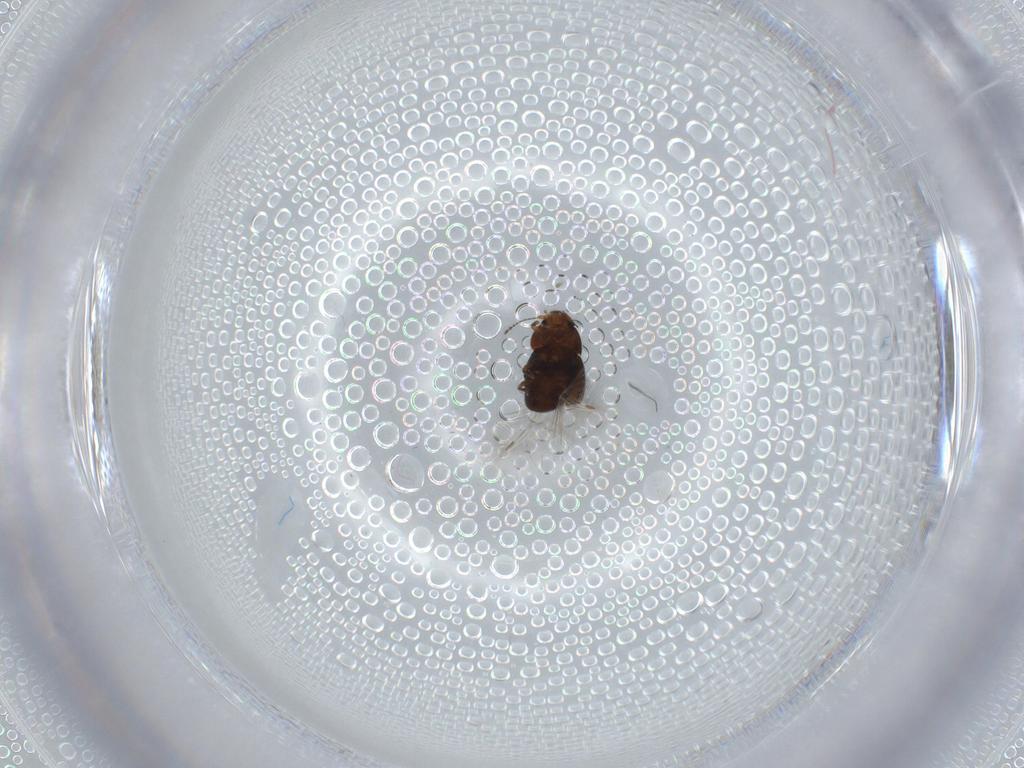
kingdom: Animalia
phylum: Arthropoda
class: Insecta
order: Coleoptera
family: Ptiliidae
